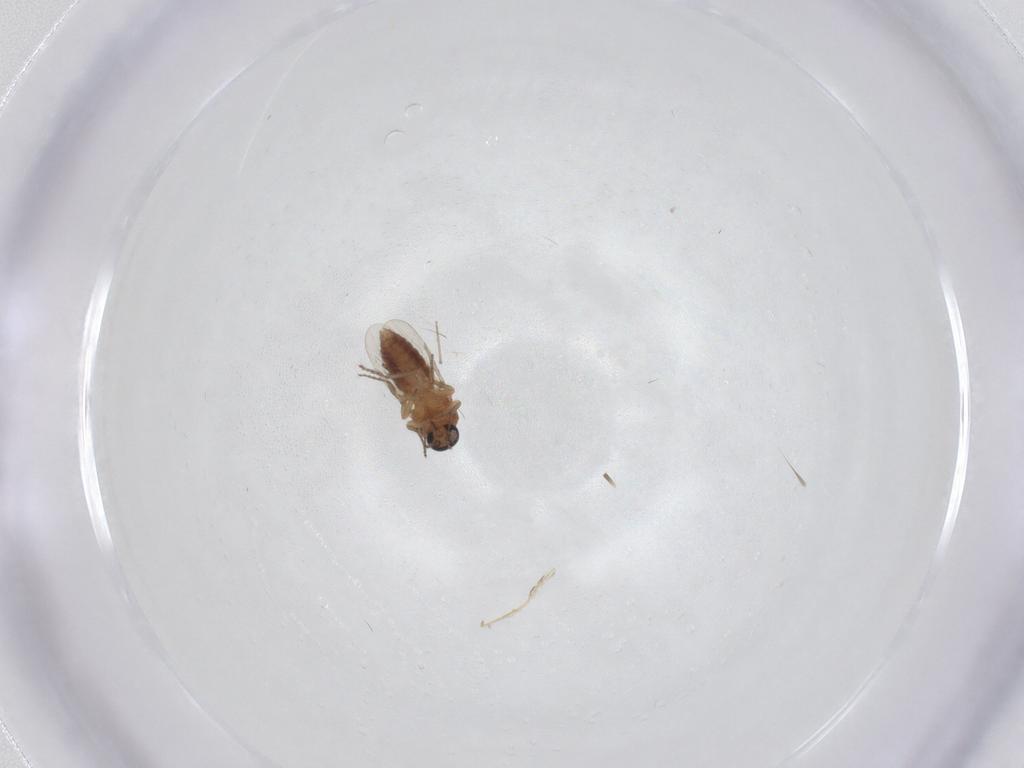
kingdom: Animalia
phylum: Arthropoda
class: Insecta
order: Diptera
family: Ceratopogonidae
